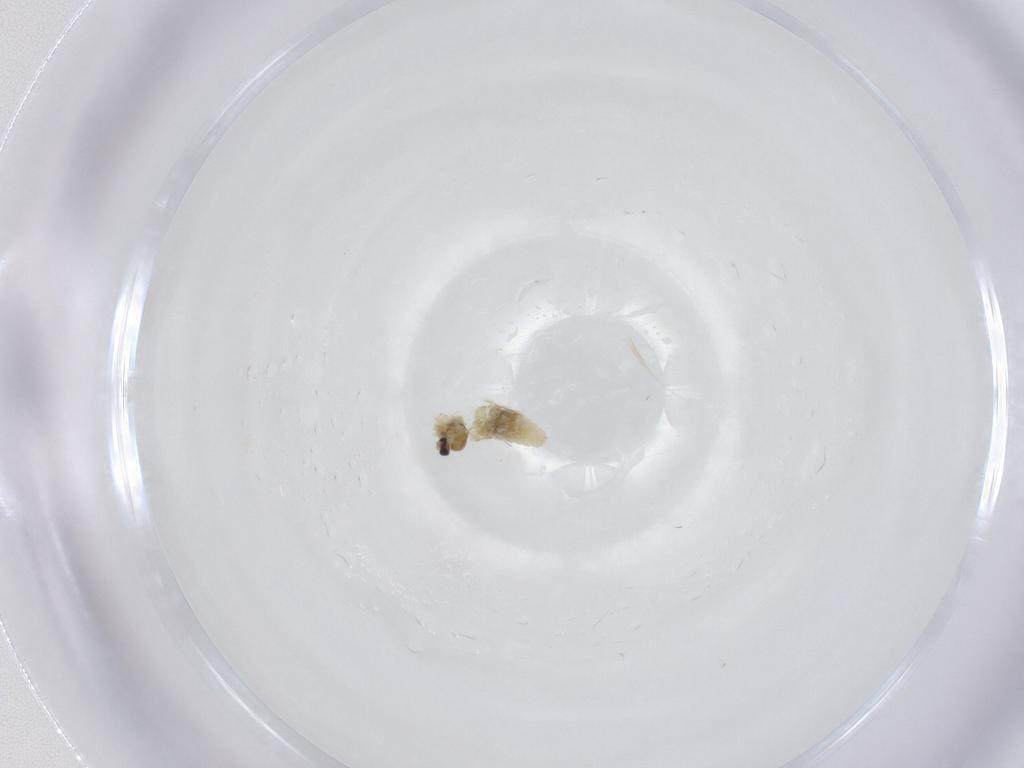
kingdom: Animalia
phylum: Arthropoda
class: Insecta
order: Diptera
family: Cecidomyiidae
